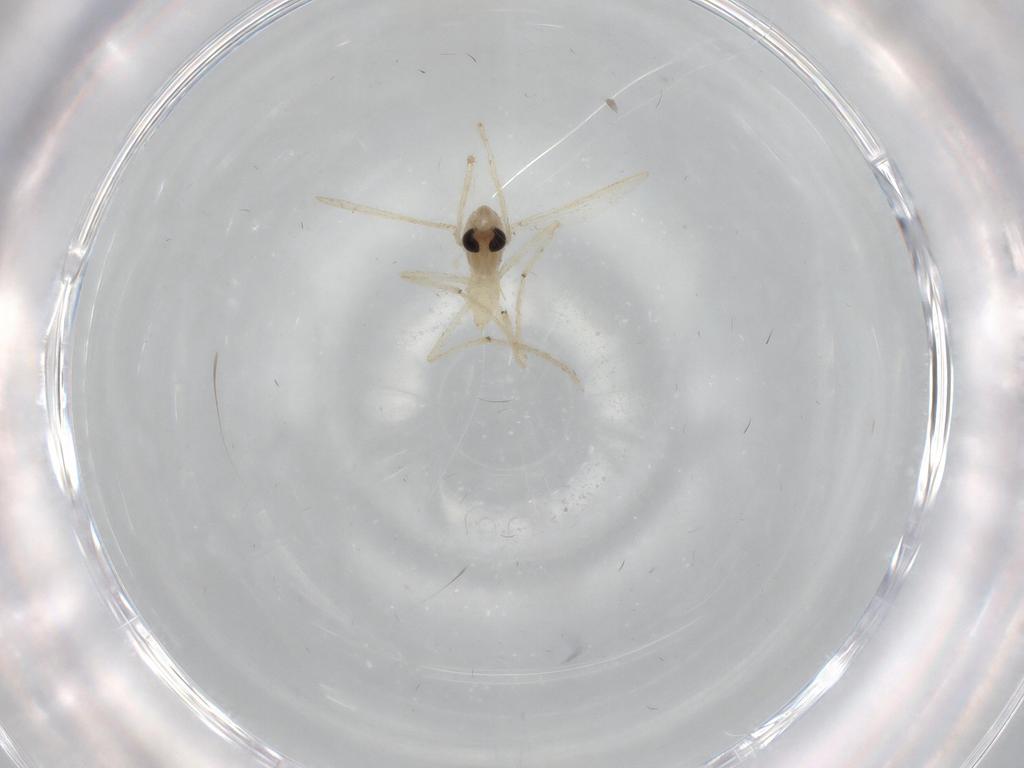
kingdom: Animalia
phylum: Arthropoda
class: Insecta
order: Diptera
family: Chironomidae
